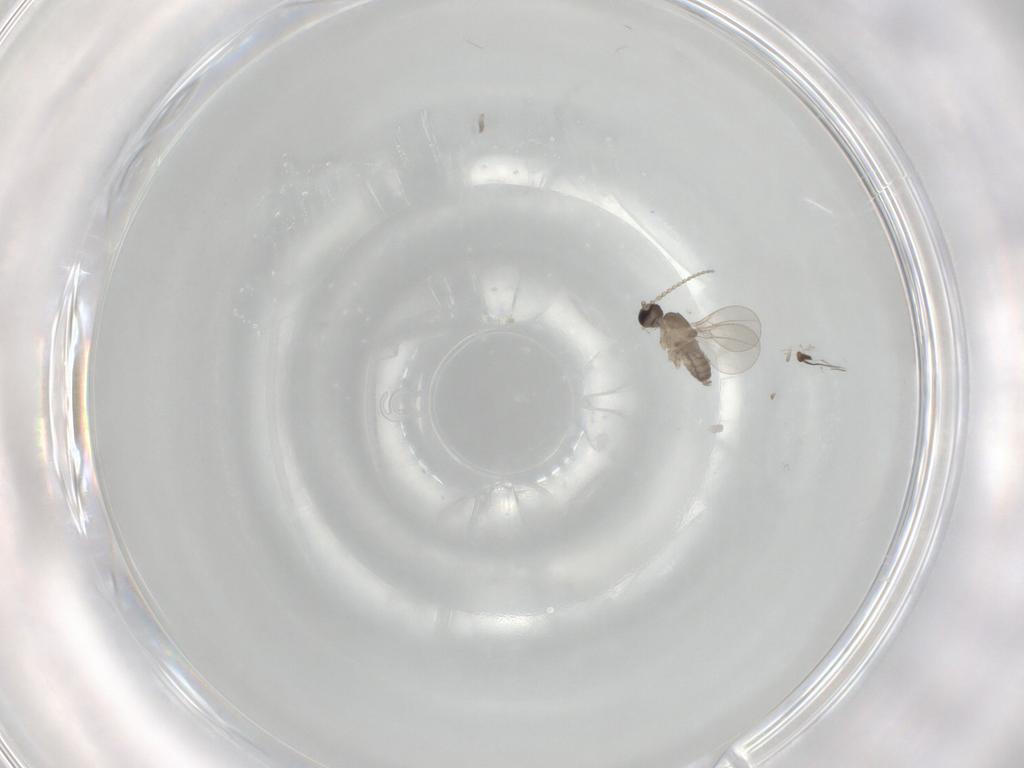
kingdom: Animalia
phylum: Arthropoda
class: Insecta
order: Diptera
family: Cecidomyiidae
